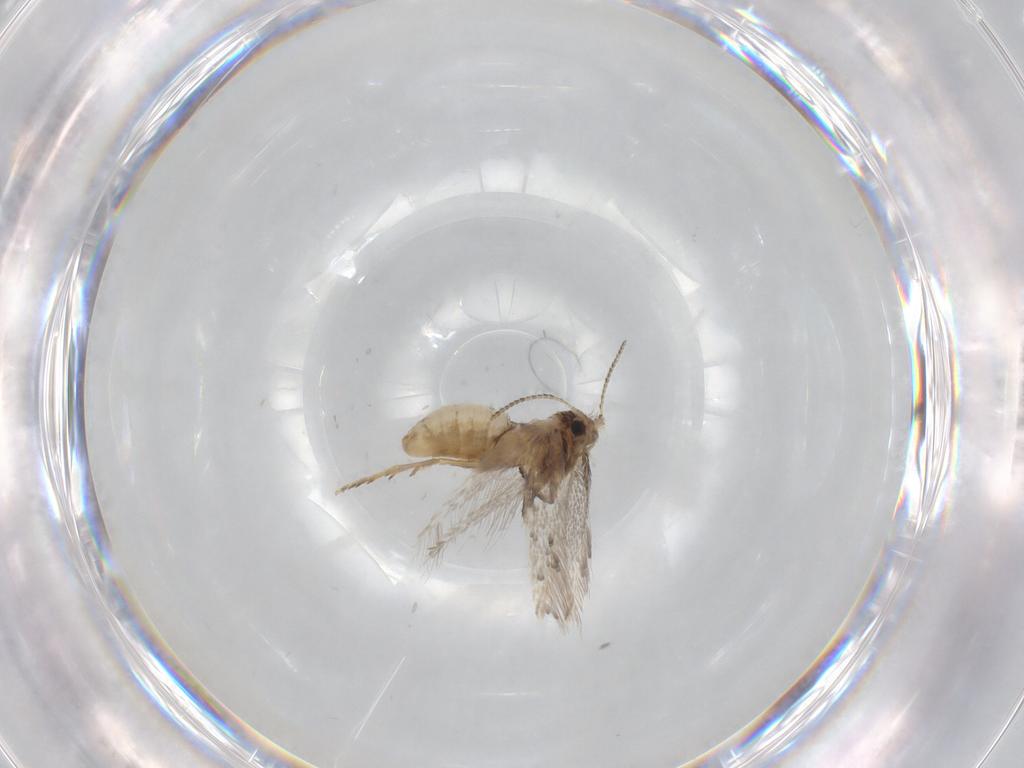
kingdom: Animalia
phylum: Arthropoda
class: Insecta
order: Lepidoptera
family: Nepticulidae
